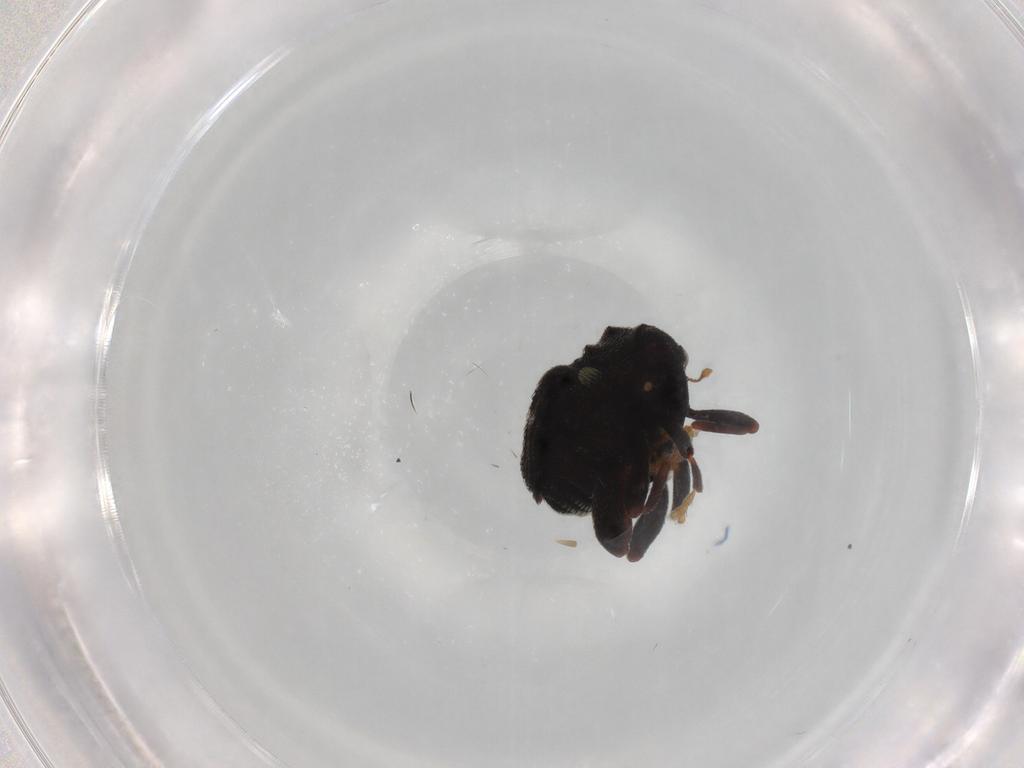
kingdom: Animalia
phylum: Arthropoda
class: Insecta
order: Coleoptera
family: Curculionidae
